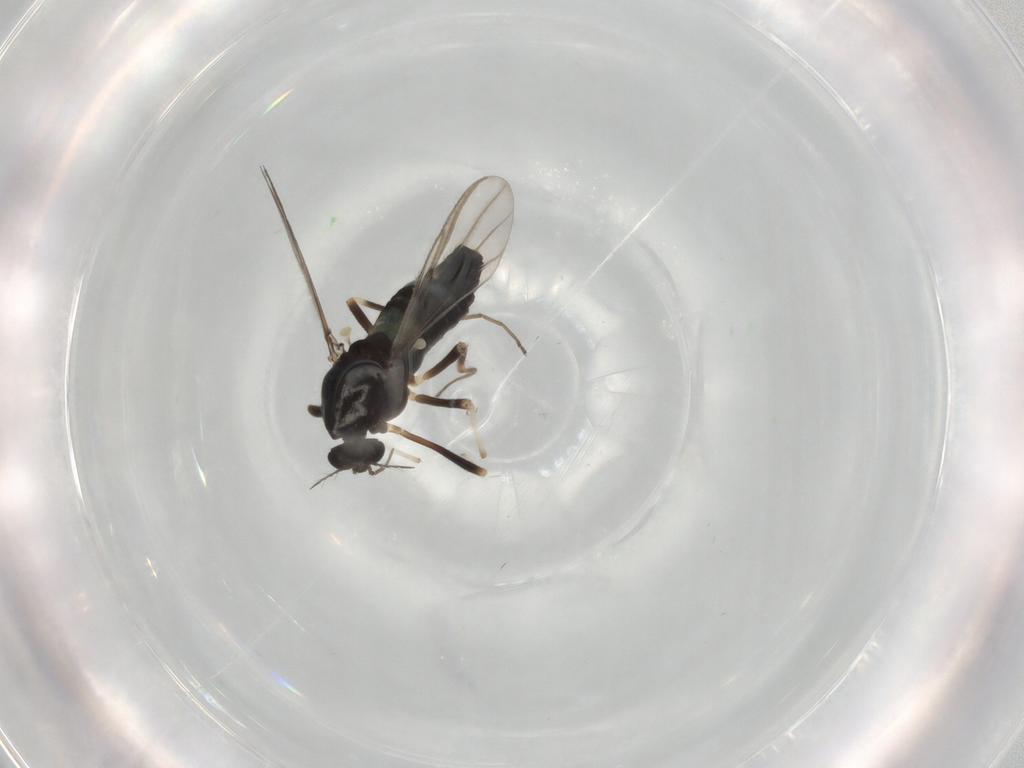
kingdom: Animalia
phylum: Arthropoda
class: Insecta
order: Diptera
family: Chironomidae
